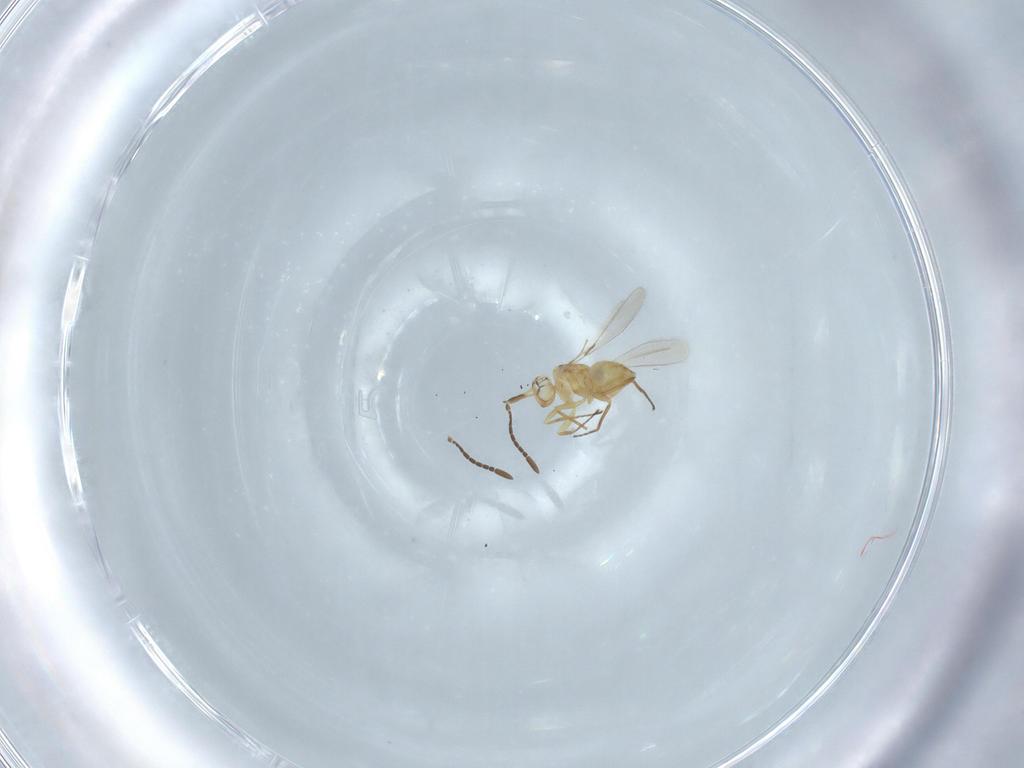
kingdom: Animalia
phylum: Arthropoda
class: Insecta
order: Hymenoptera
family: Mymaridae
